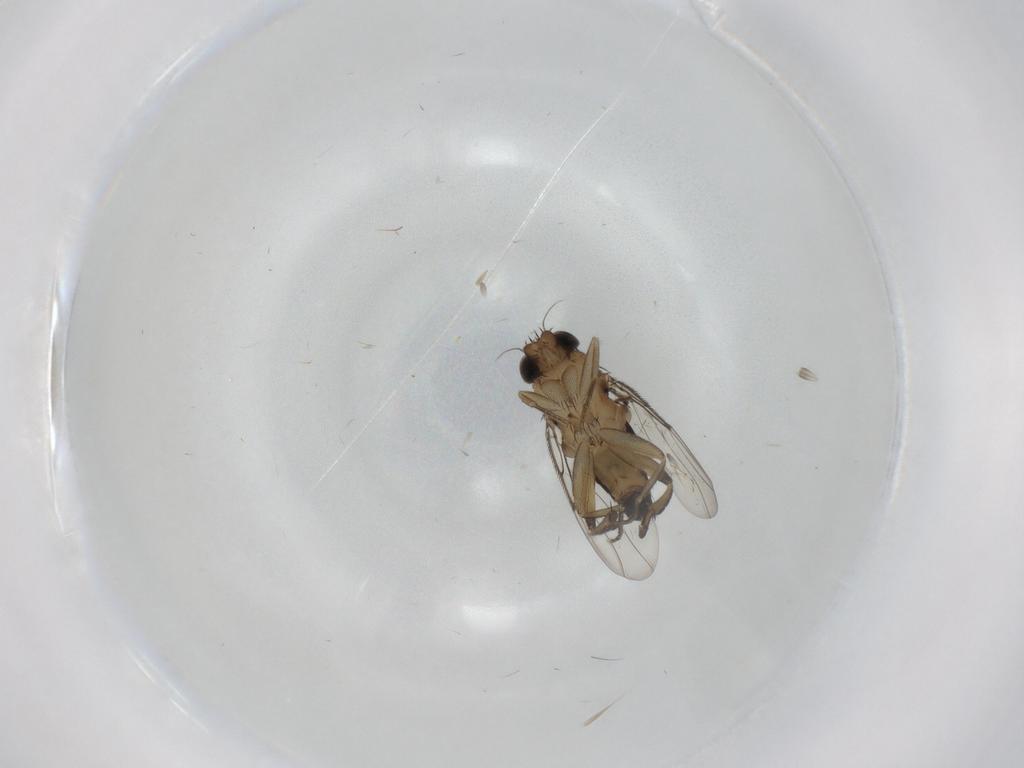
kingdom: Animalia
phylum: Arthropoda
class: Insecta
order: Diptera
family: Phoridae
